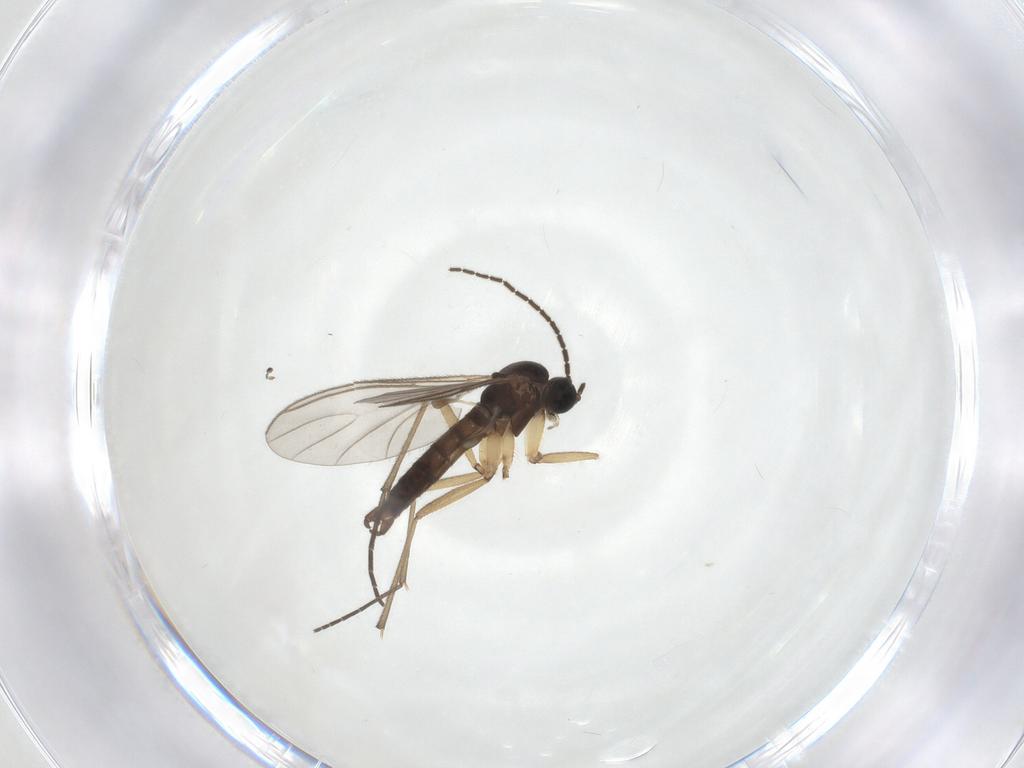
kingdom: Animalia
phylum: Arthropoda
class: Insecta
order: Diptera
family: Sciaridae
